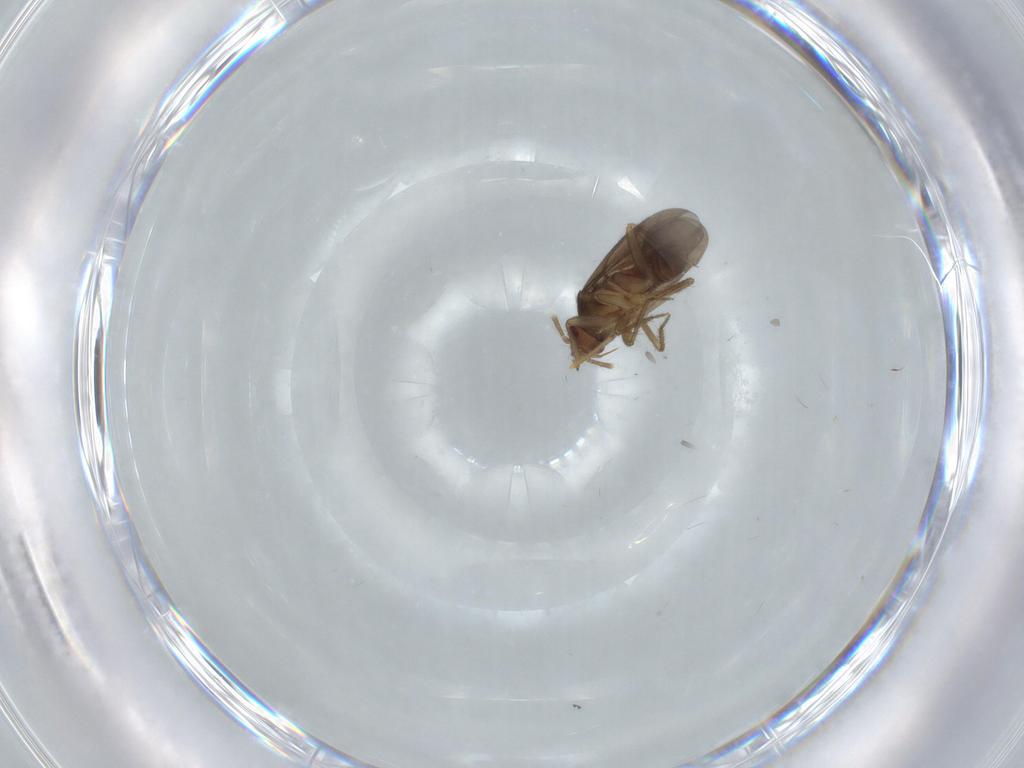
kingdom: Animalia
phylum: Arthropoda
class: Insecta
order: Hemiptera
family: Ceratocombidae
